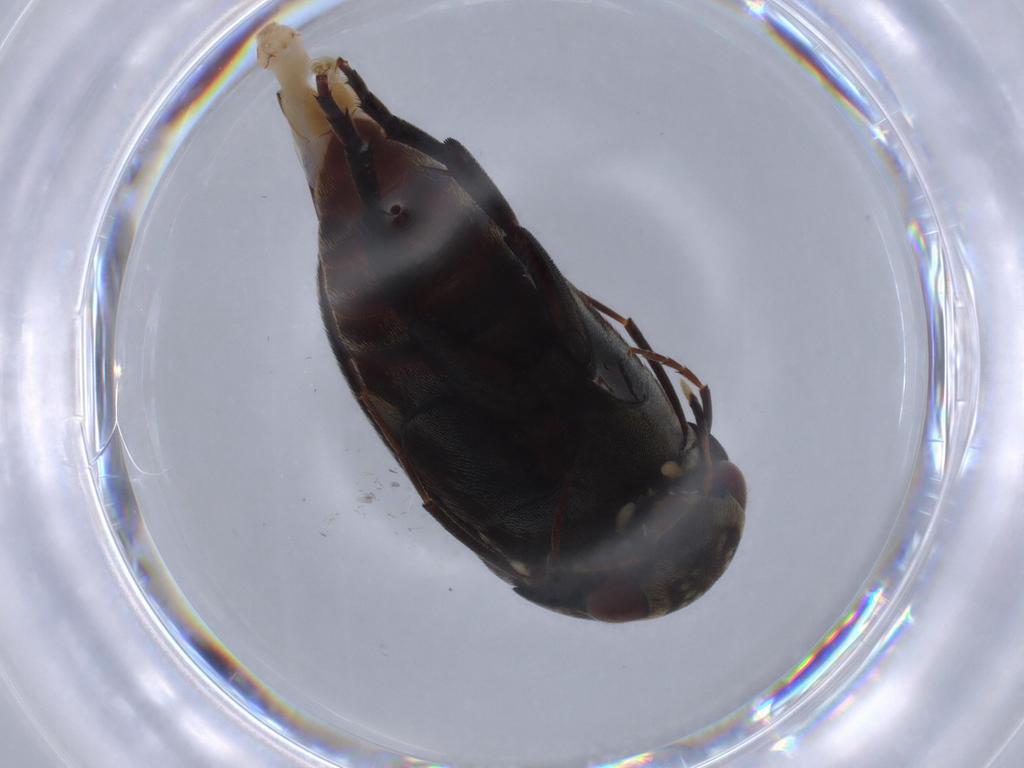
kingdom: Animalia
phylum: Arthropoda
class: Insecta
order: Coleoptera
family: Mordellidae
